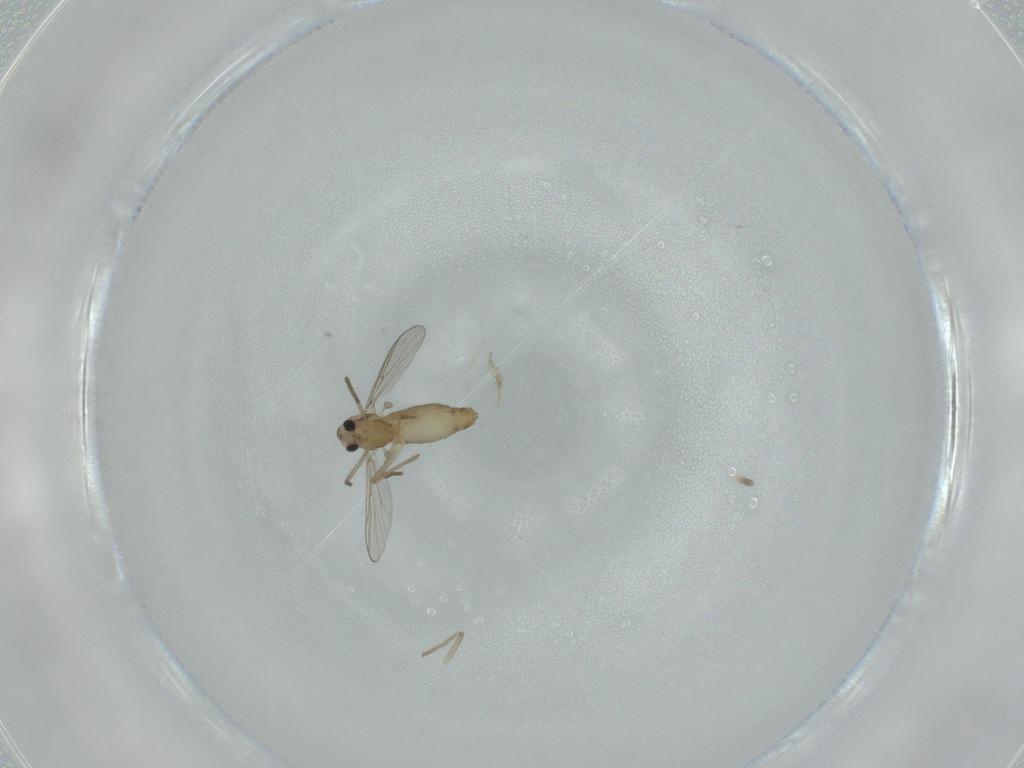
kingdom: Animalia
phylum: Arthropoda
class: Insecta
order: Diptera
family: Chironomidae
